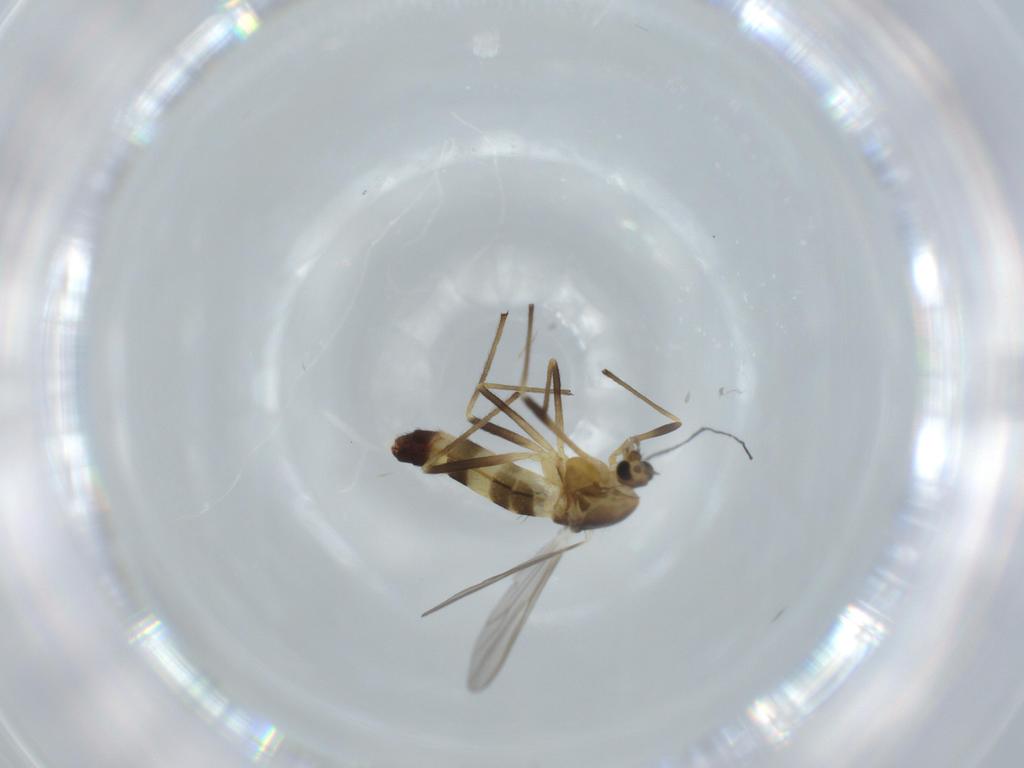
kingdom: Animalia
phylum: Arthropoda
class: Insecta
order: Diptera
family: Chironomidae
